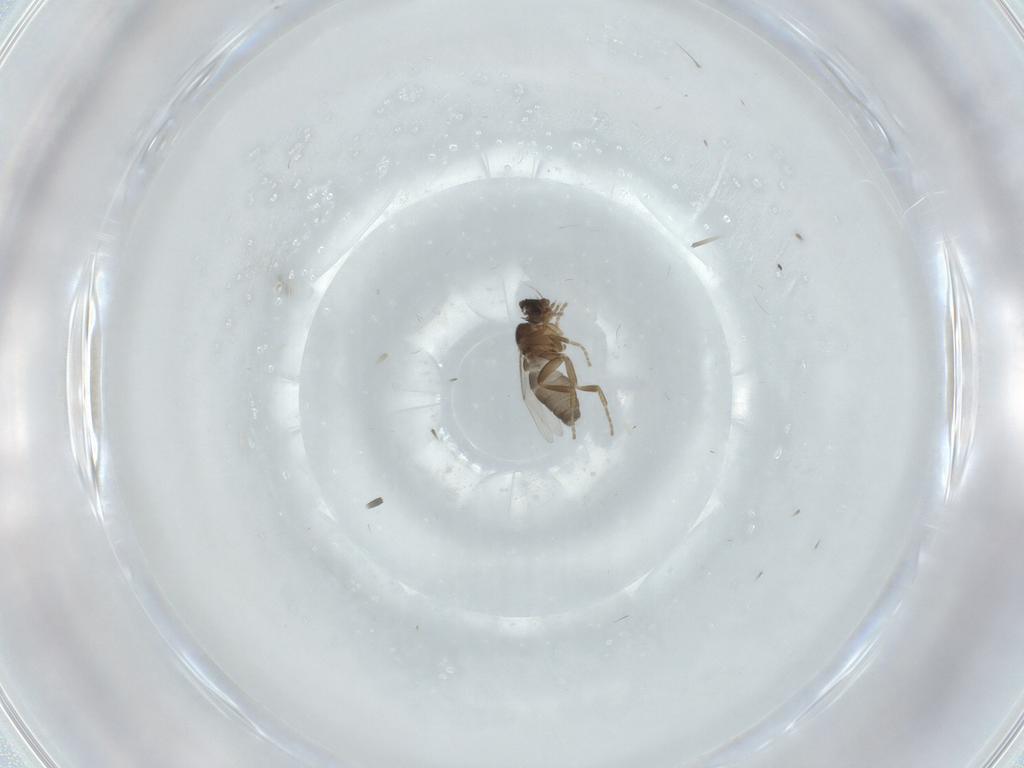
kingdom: Animalia
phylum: Arthropoda
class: Insecta
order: Diptera
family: Phoridae
